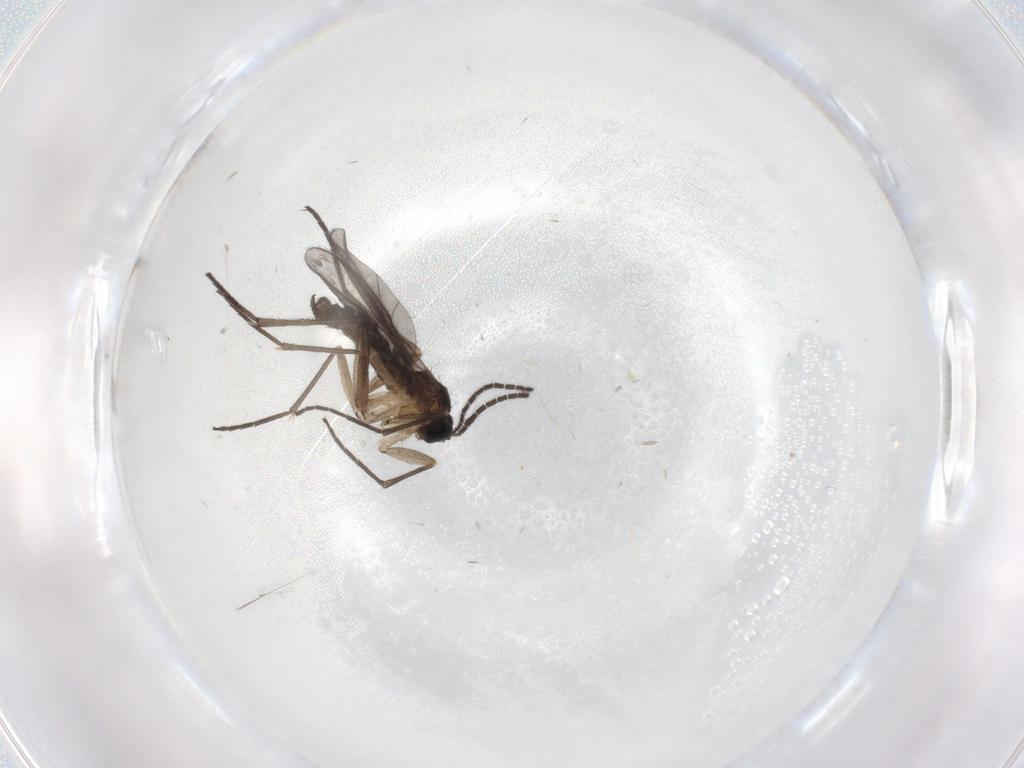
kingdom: Animalia
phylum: Arthropoda
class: Insecta
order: Diptera
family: Sciaridae
